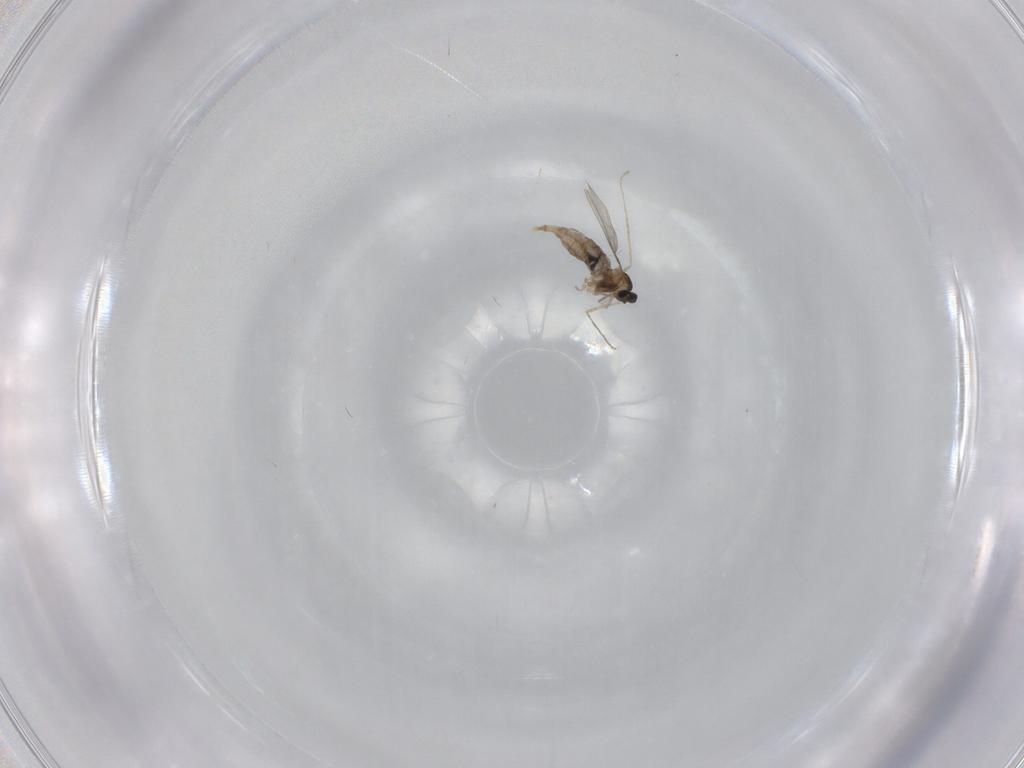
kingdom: Animalia
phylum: Arthropoda
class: Insecta
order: Diptera
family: Cecidomyiidae
